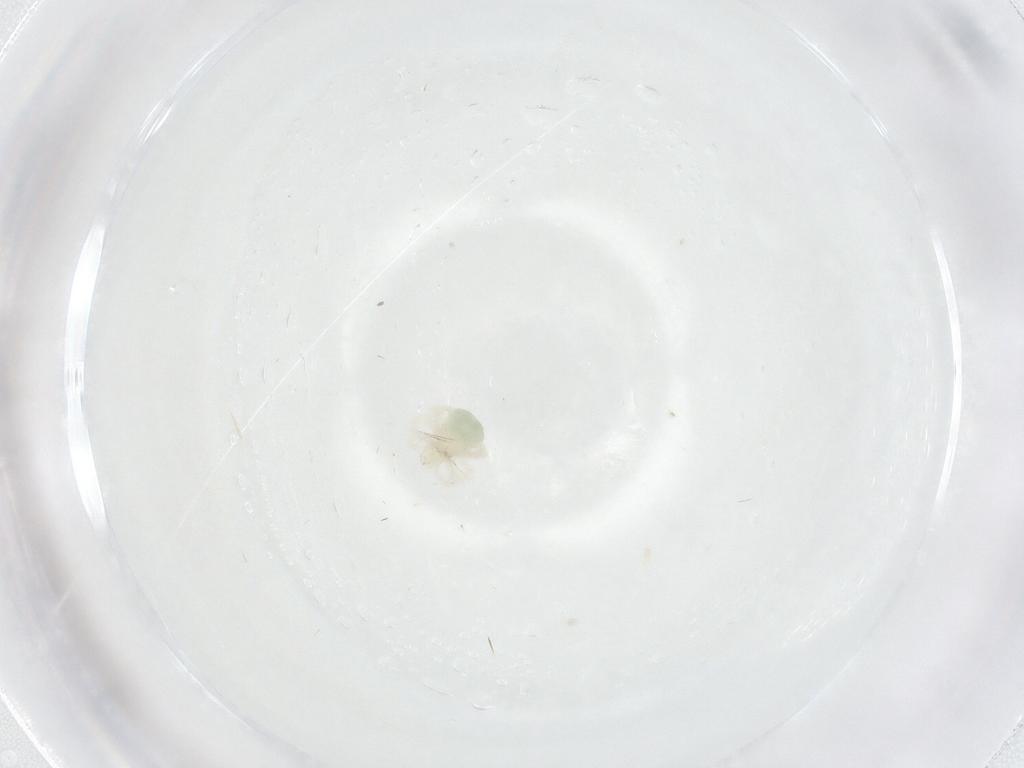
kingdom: Animalia
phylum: Arthropoda
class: Arachnida
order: Trombidiformes
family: Anystidae
